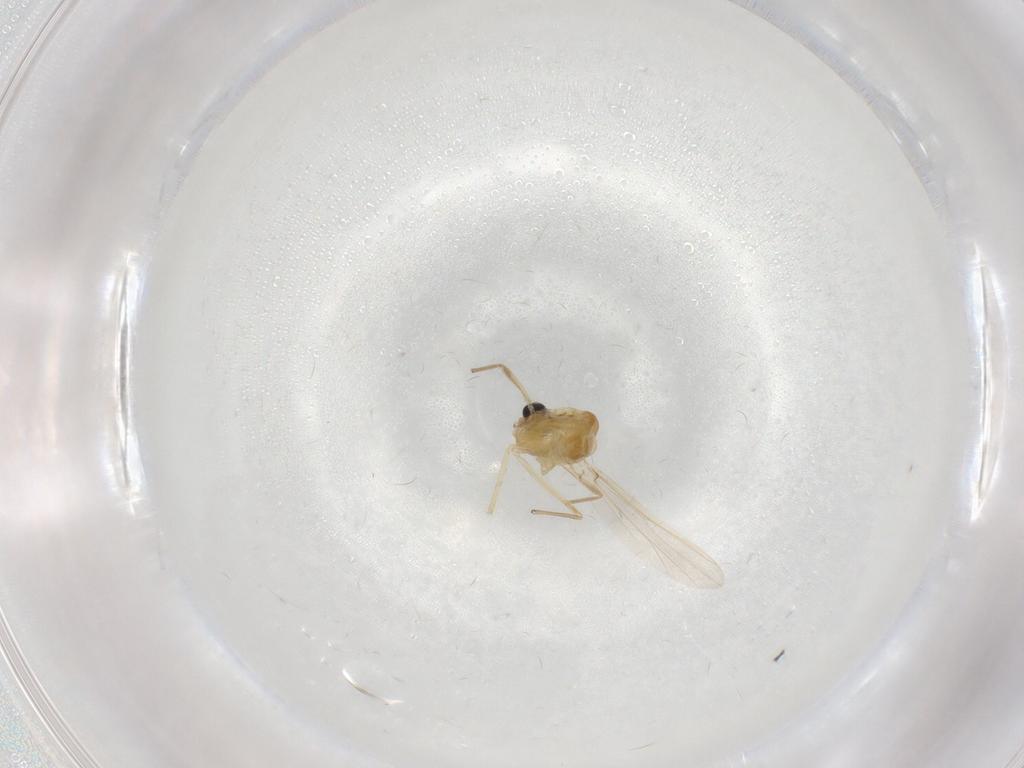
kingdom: Animalia
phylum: Arthropoda
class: Insecta
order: Diptera
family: Chironomidae
